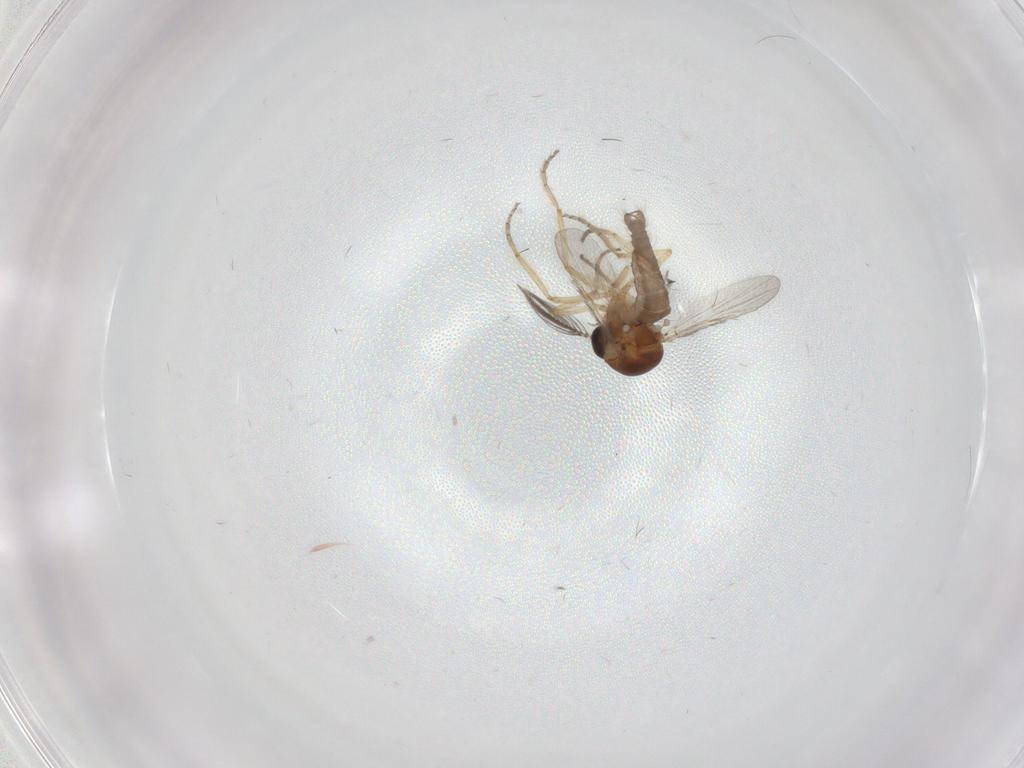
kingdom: Animalia
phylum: Arthropoda
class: Insecta
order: Diptera
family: Ceratopogonidae
